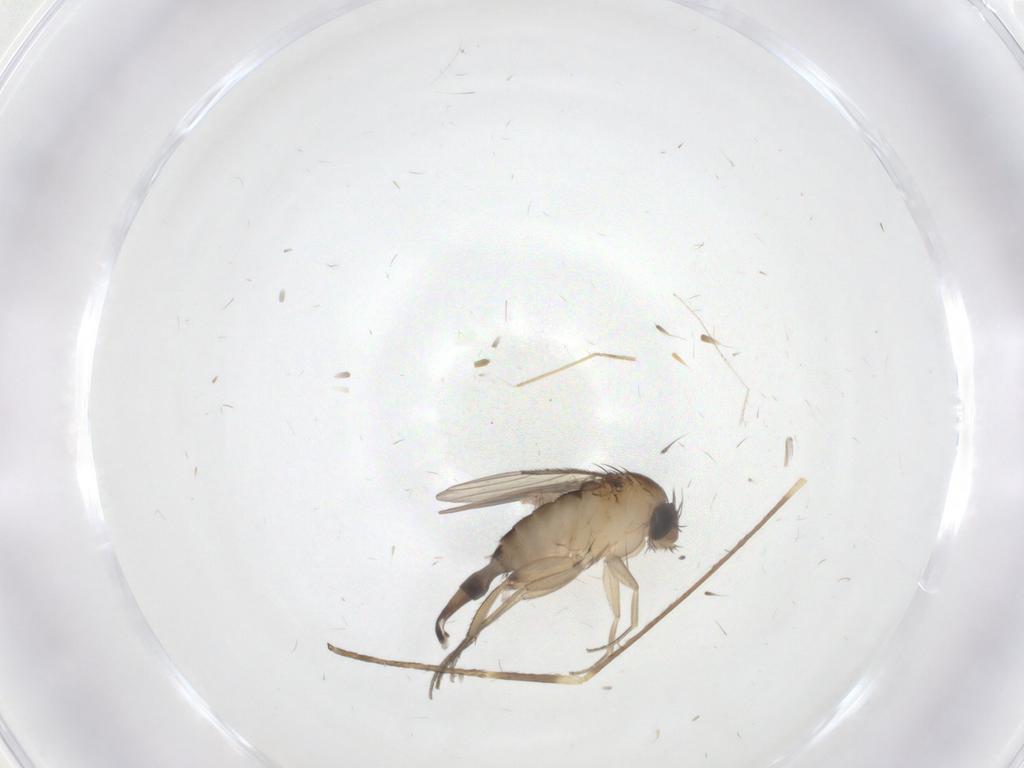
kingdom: Animalia
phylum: Arthropoda
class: Insecta
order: Diptera
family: Phoridae
